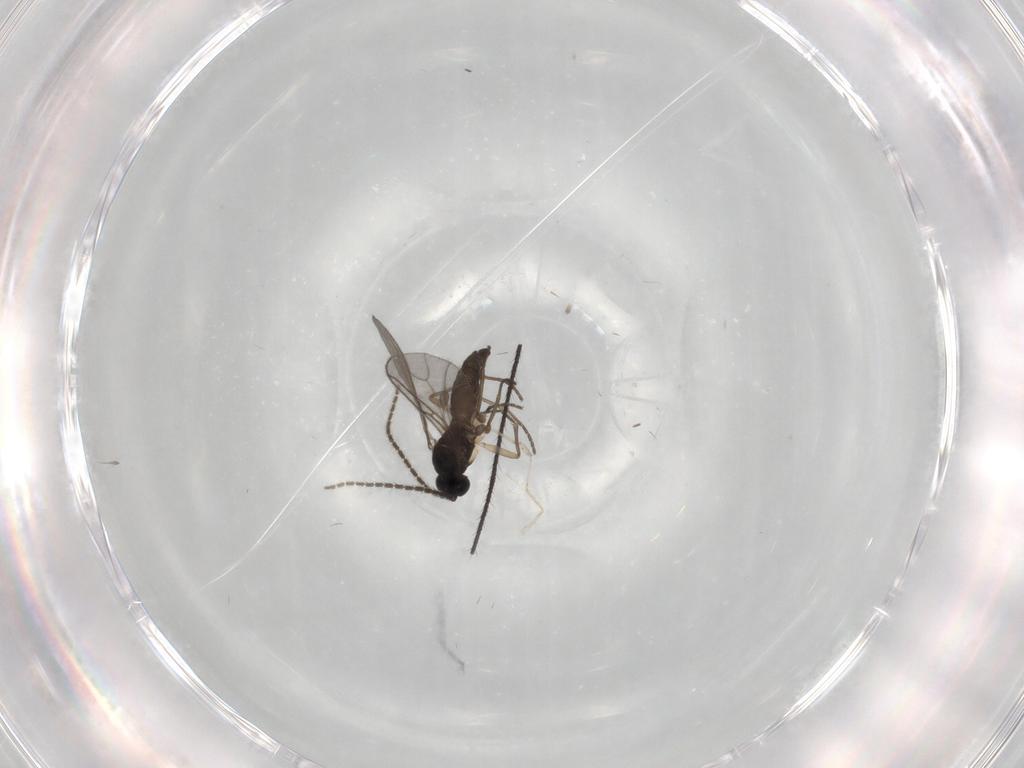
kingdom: Animalia
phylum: Arthropoda
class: Insecta
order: Diptera
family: Sciaridae
